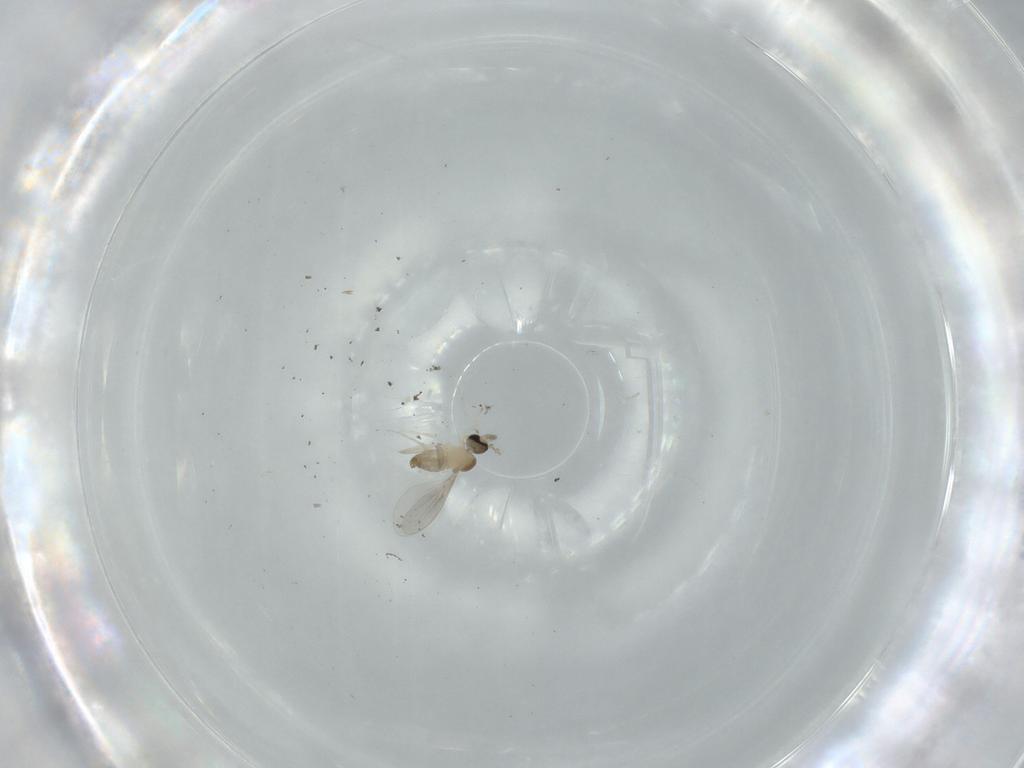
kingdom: Animalia
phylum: Arthropoda
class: Insecta
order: Diptera
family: Cecidomyiidae
